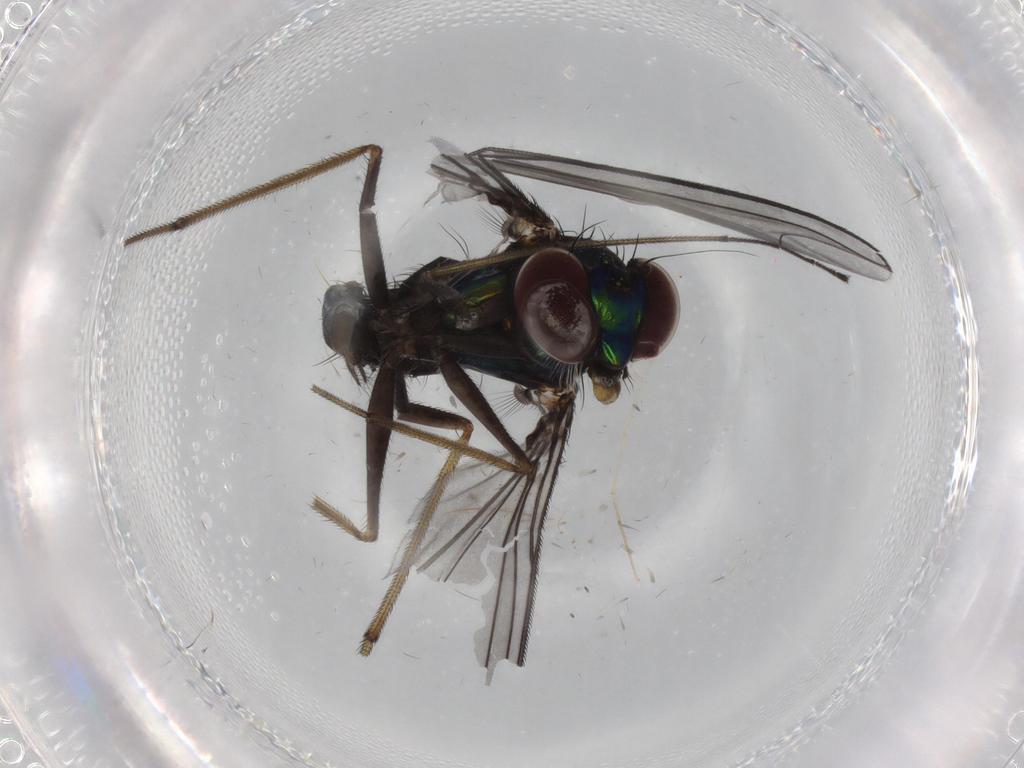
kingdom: Animalia
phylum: Arthropoda
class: Insecta
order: Diptera
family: Dolichopodidae
